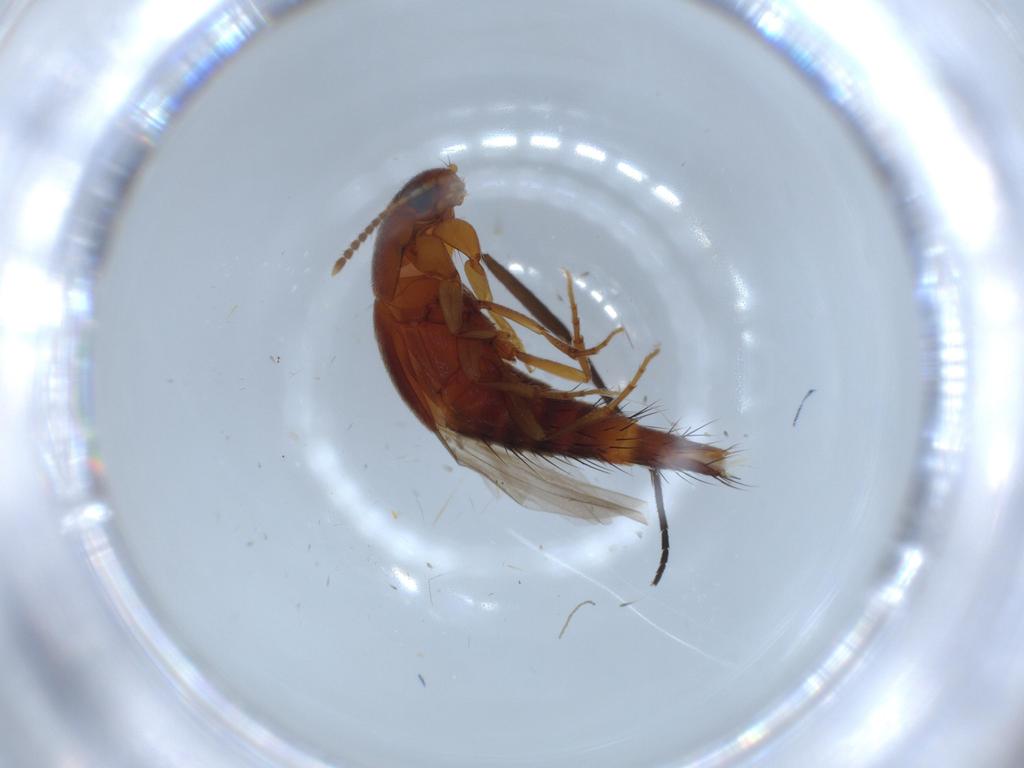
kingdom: Animalia
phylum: Arthropoda
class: Insecta
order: Coleoptera
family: Staphylinidae
